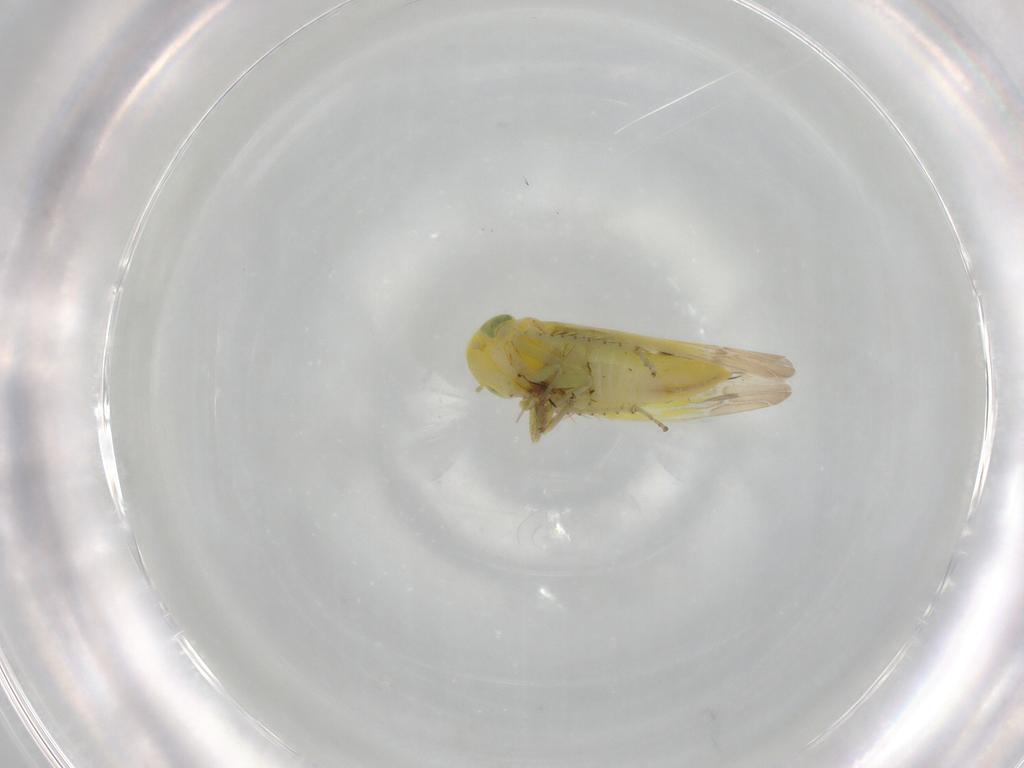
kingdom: Animalia
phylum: Arthropoda
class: Insecta
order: Hemiptera
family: Cicadellidae
